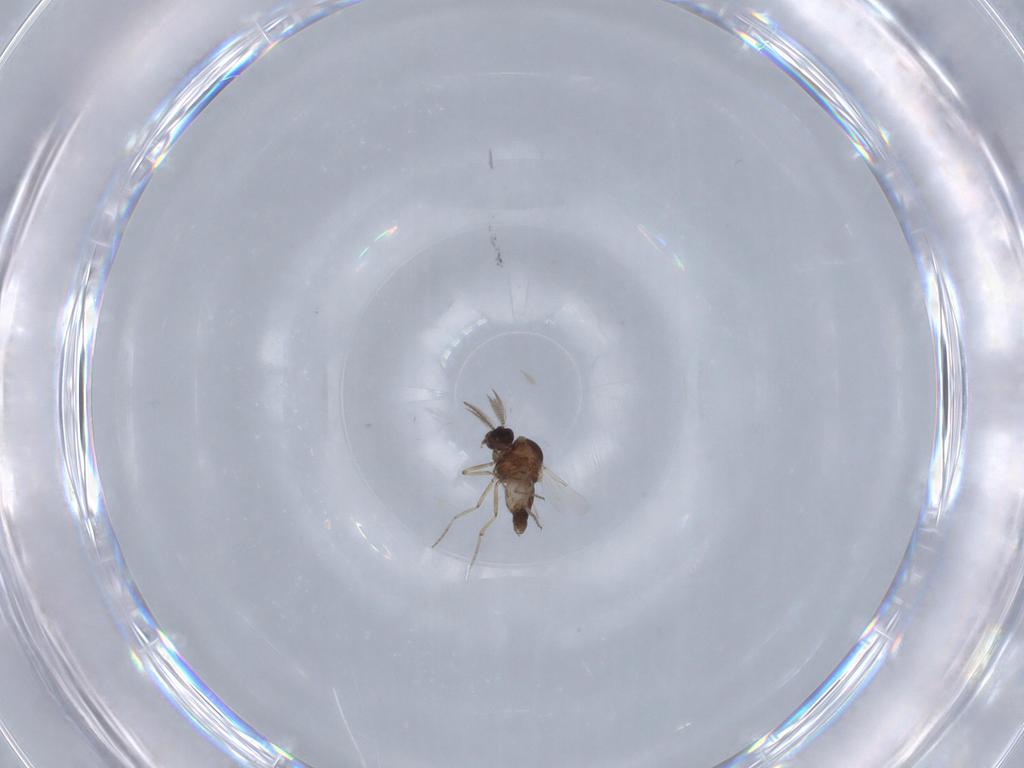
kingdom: Animalia
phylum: Arthropoda
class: Insecta
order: Diptera
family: Ceratopogonidae
